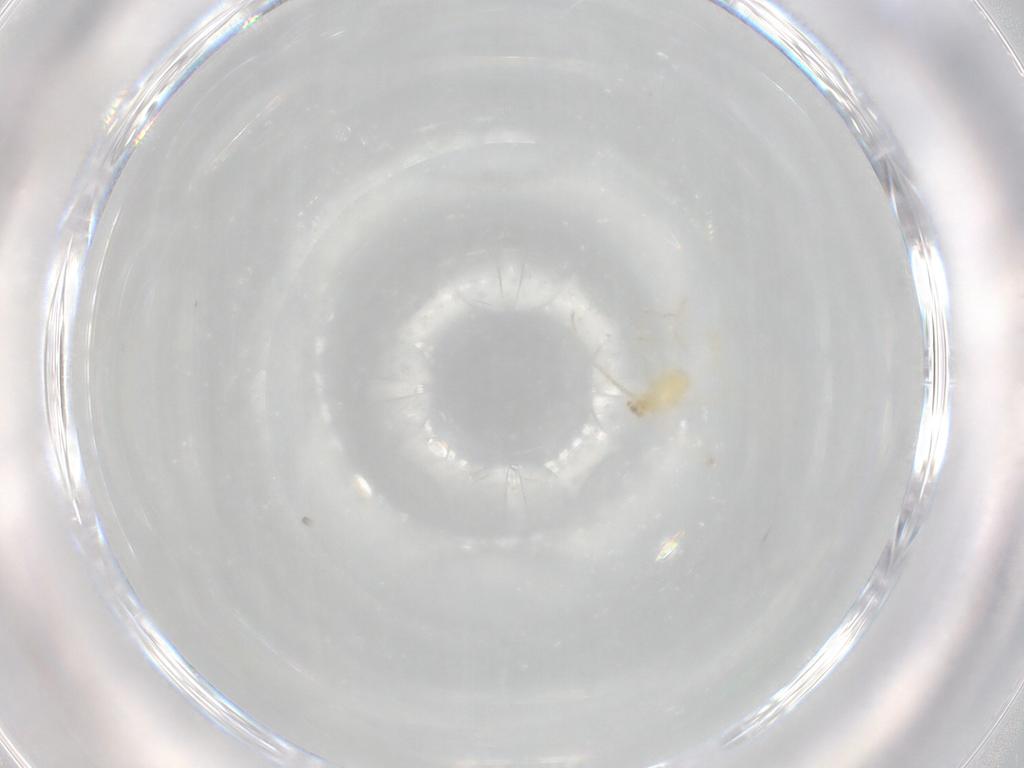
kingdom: Animalia
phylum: Arthropoda
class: Arachnida
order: Trombidiformes
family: Erythraeidae
